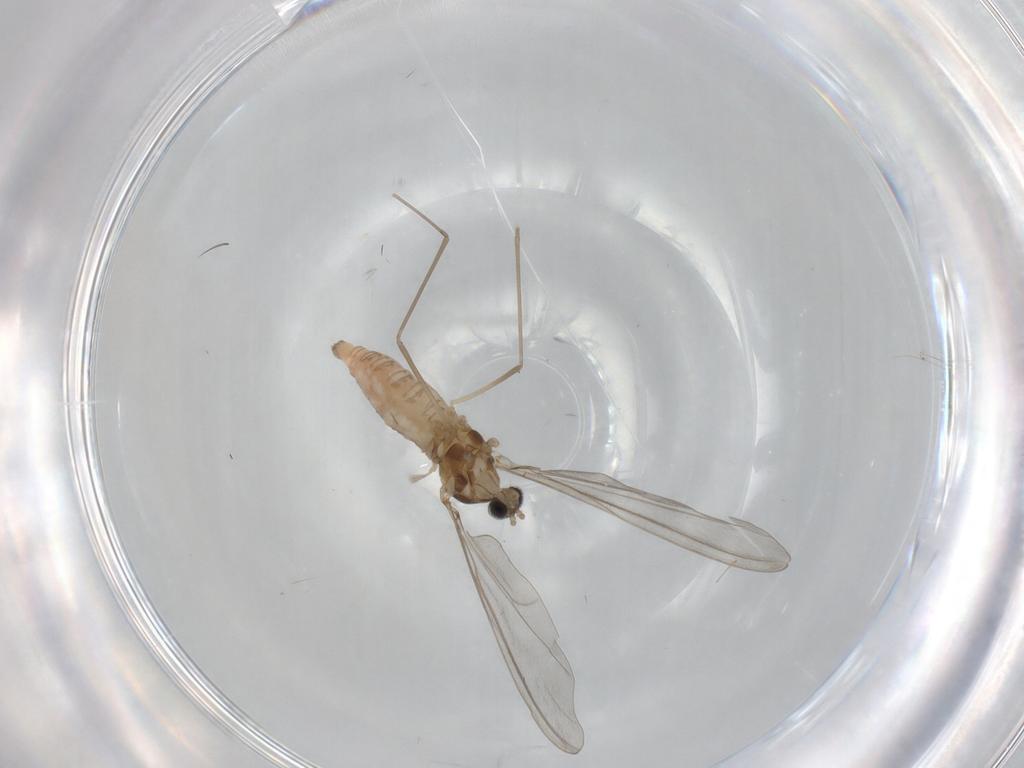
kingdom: Animalia
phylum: Arthropoda
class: Insecta
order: Diptera
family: Cecidomyiidae
